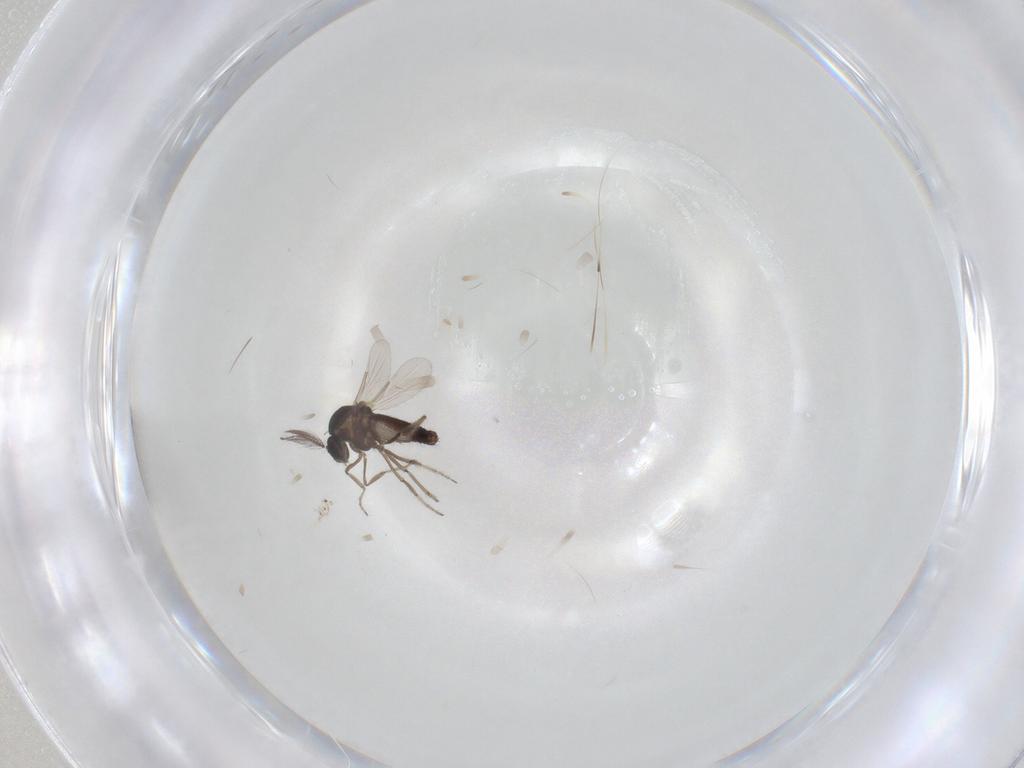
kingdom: Animalia
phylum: Arthropoda
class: Insecta
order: Diptera
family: Ceratopogonidae
